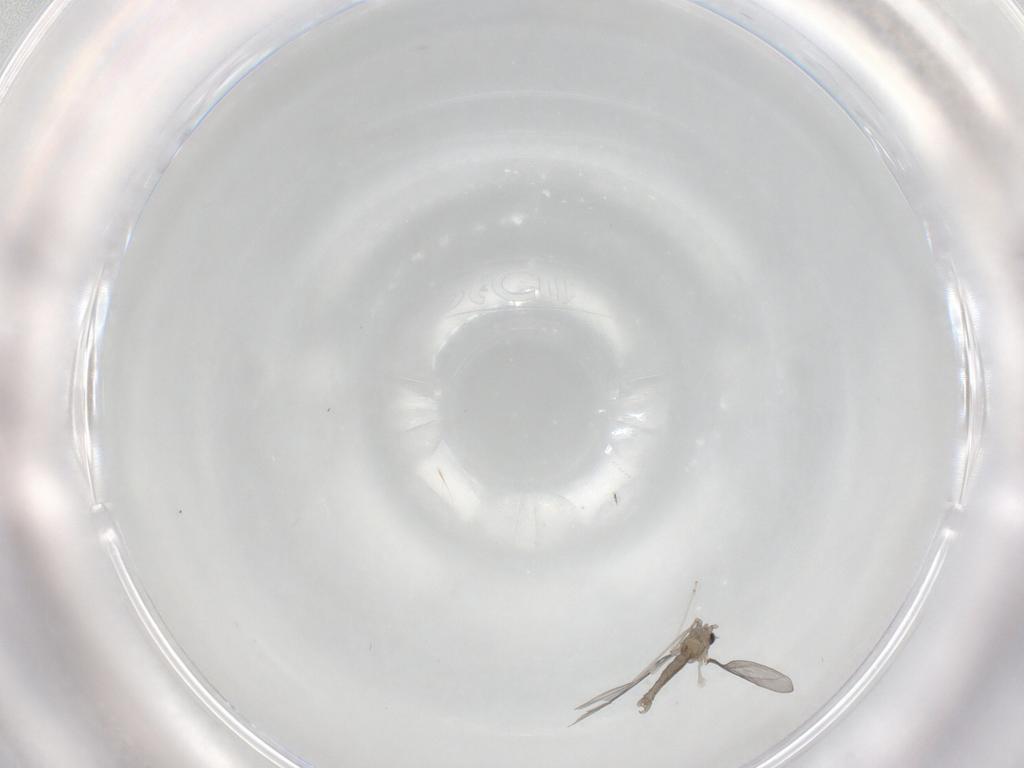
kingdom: Animalia
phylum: Arthropoda
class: Insecta
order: Diptera
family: Cecidomyiidae
